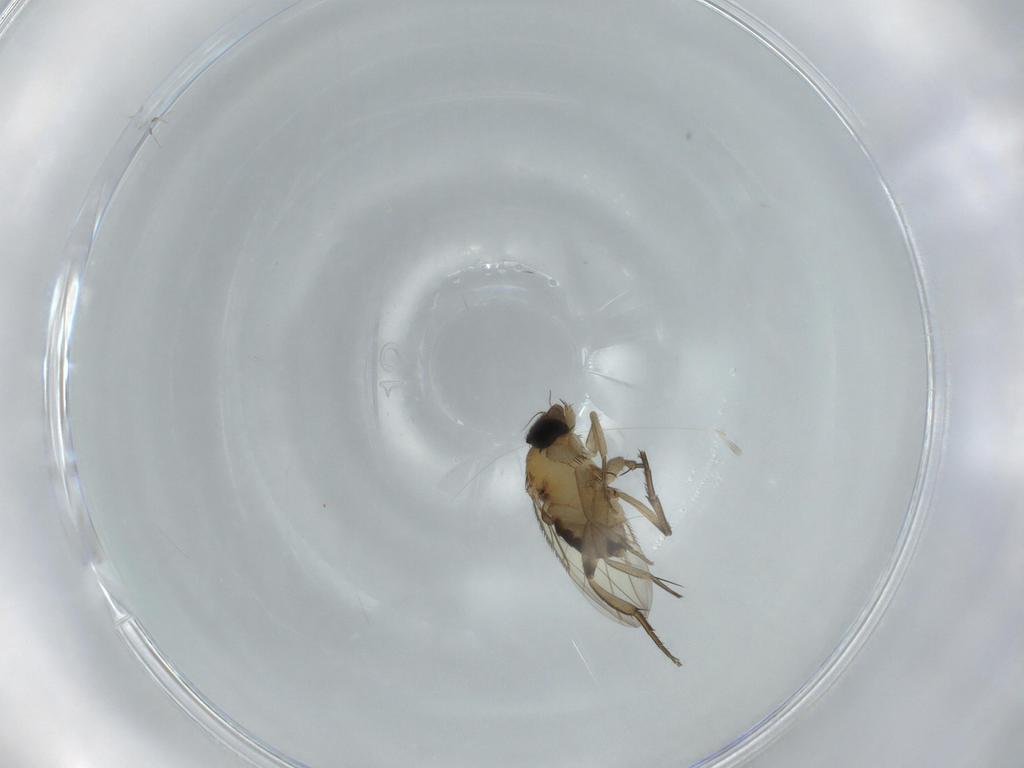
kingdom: Animalia
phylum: Arthropoda
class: Insecta
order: Diptera
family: Phoridae
